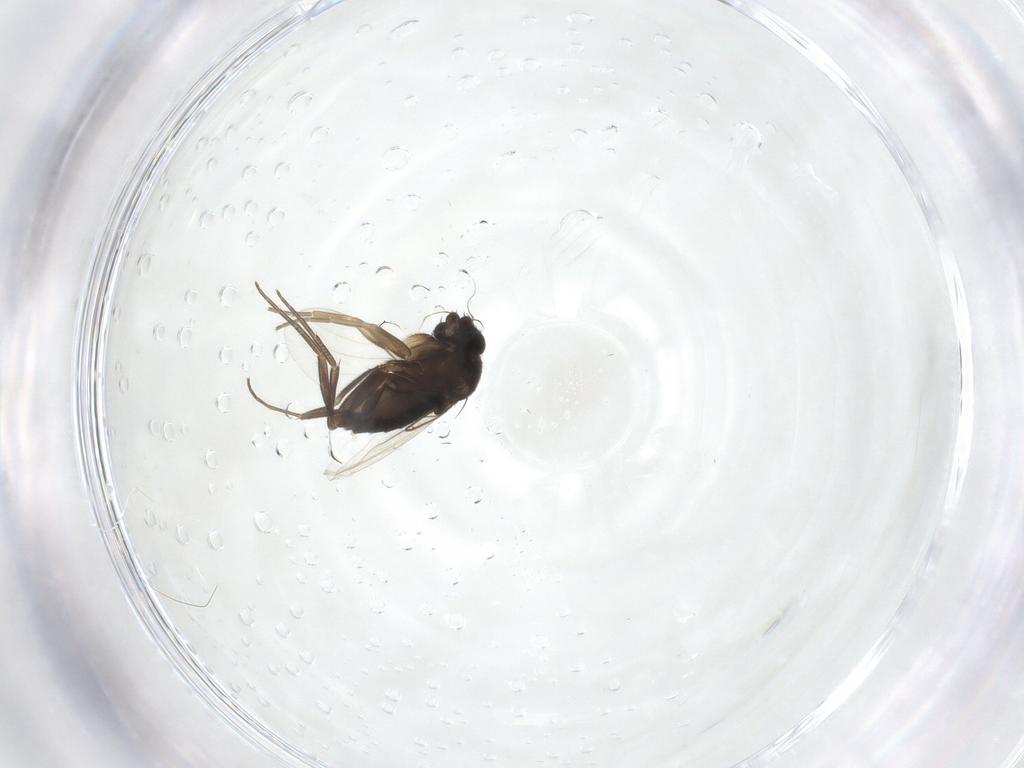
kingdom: Animalia
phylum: Arthropoda
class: Insecta
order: Diptera
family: Phoridae
